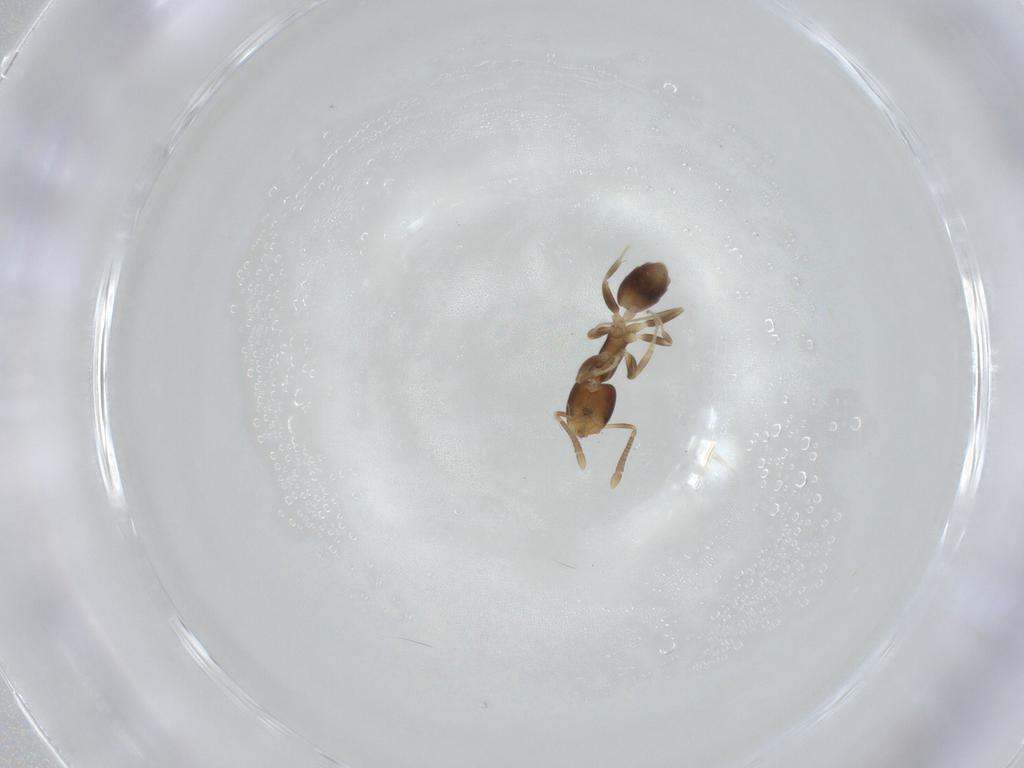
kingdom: Animalia
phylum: Arthropoda
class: Insecta
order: Hymenoptera
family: Formicidae
